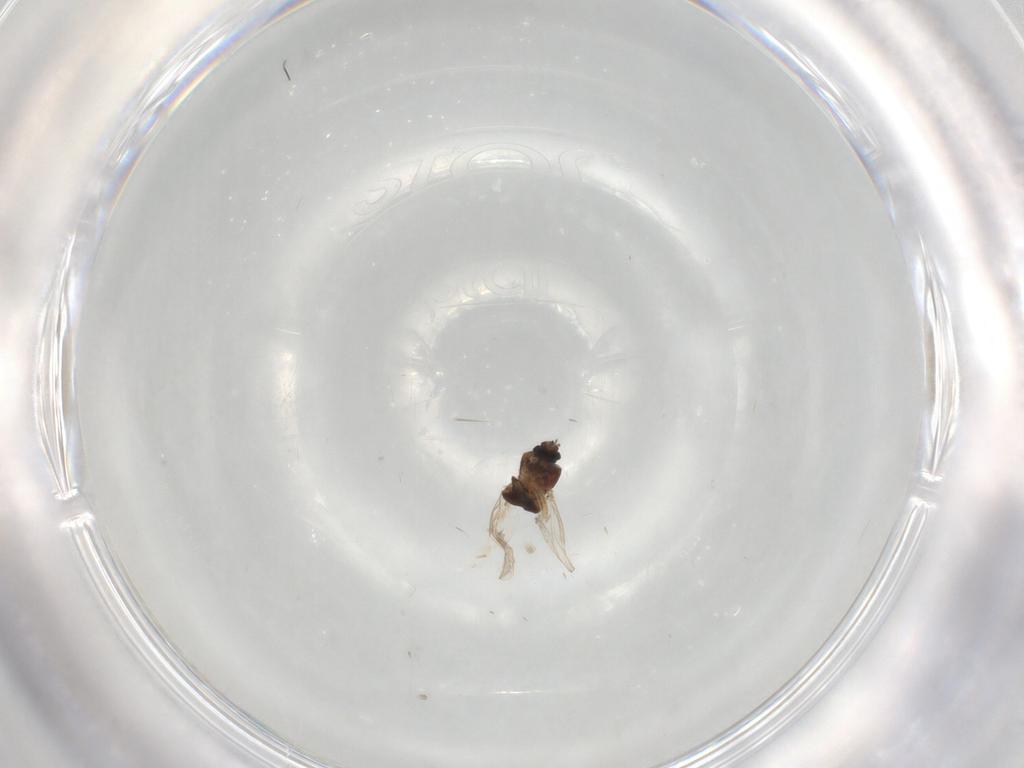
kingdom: Animalia
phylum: Arthropoda
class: Insecta
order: Diptera
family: Ceratopogonidae
